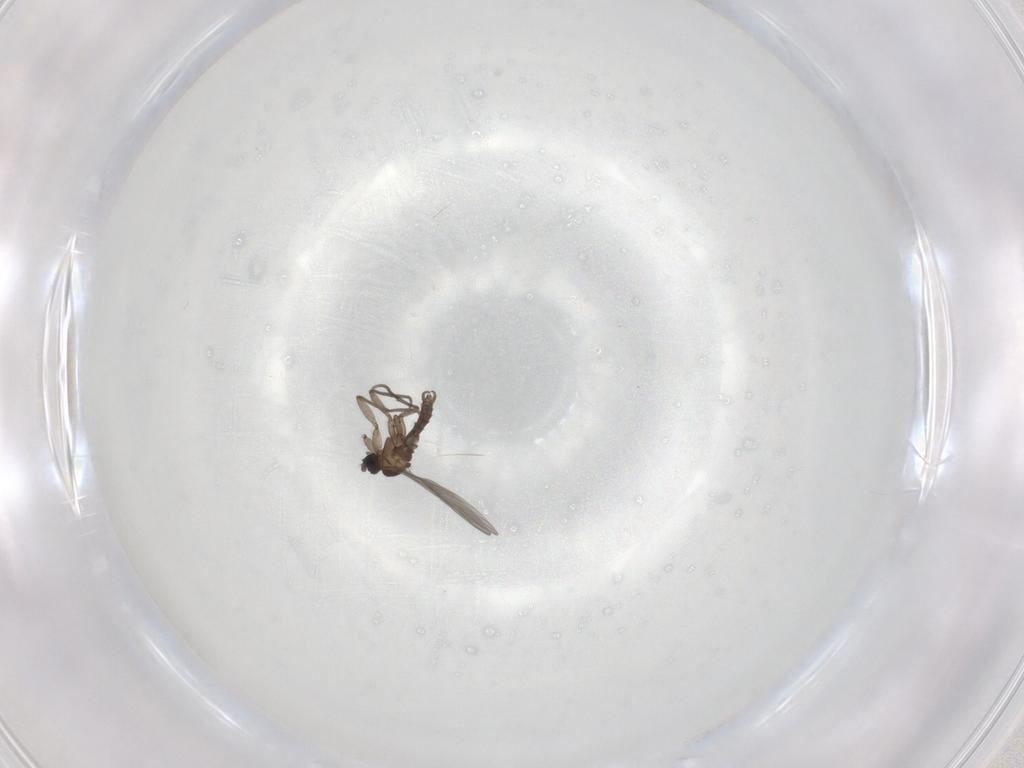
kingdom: Animalia
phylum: Arthropoda
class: Insecta
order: Diptera
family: Sciaridae
